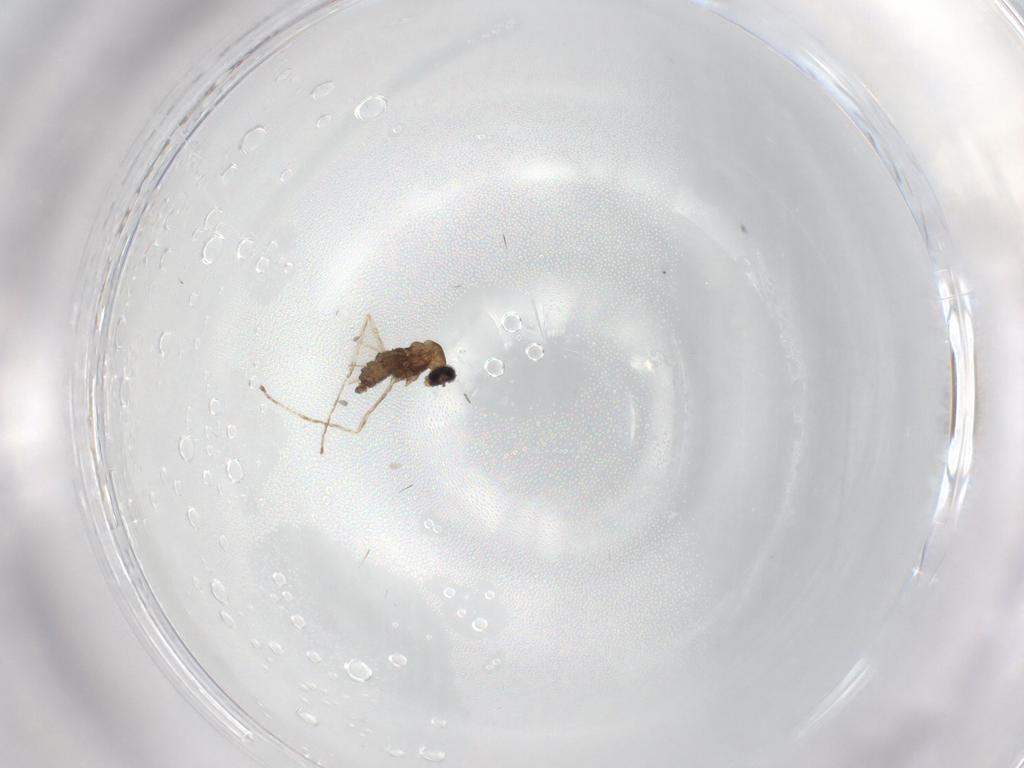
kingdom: Animalia
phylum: Arthropoda
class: Insecta
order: Diptera
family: Cecidomyiidae
